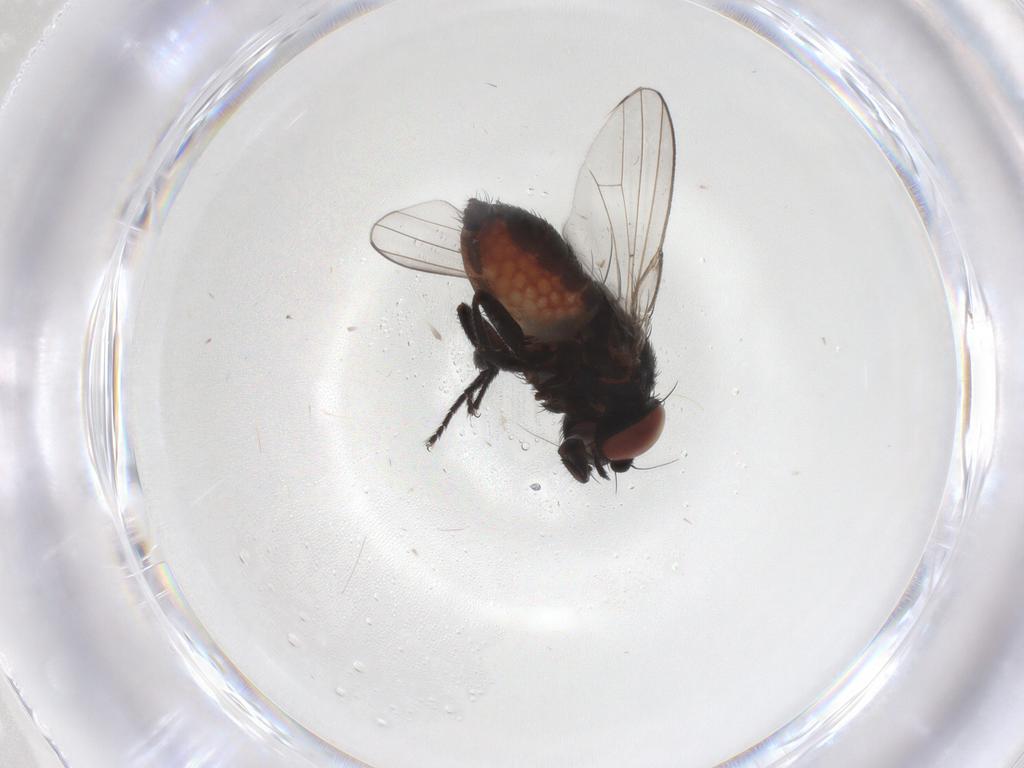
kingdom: Animalia
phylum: Arthropoda
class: Insecta
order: Diptera
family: Milichiidae
